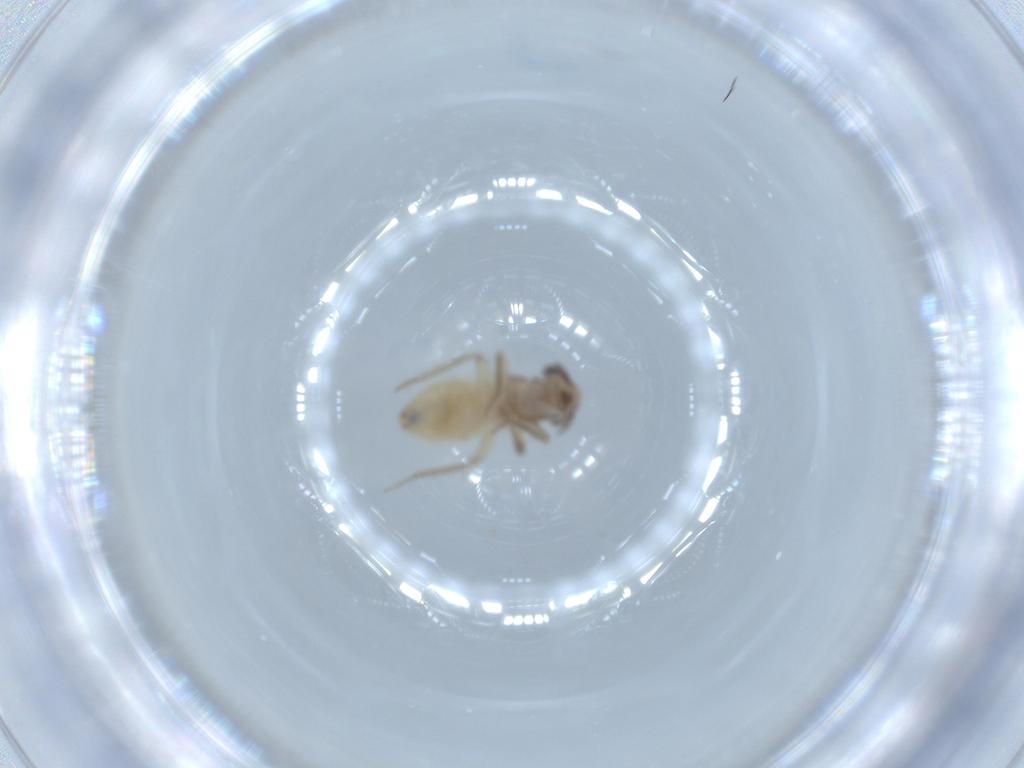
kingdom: Animalia
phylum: Arthropoda
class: Insecta
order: Psocodea
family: Lepidopsocidae
